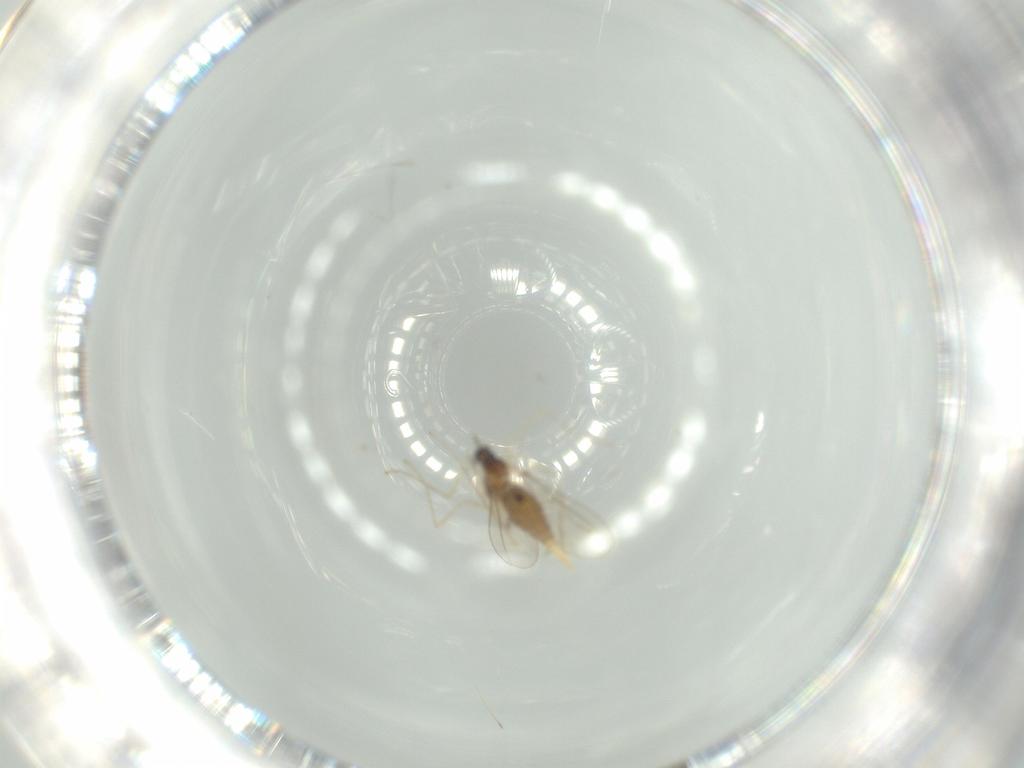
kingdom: Animalia
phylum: Arthropoda
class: Insecta
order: Diptera
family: Cecidomyiidae
